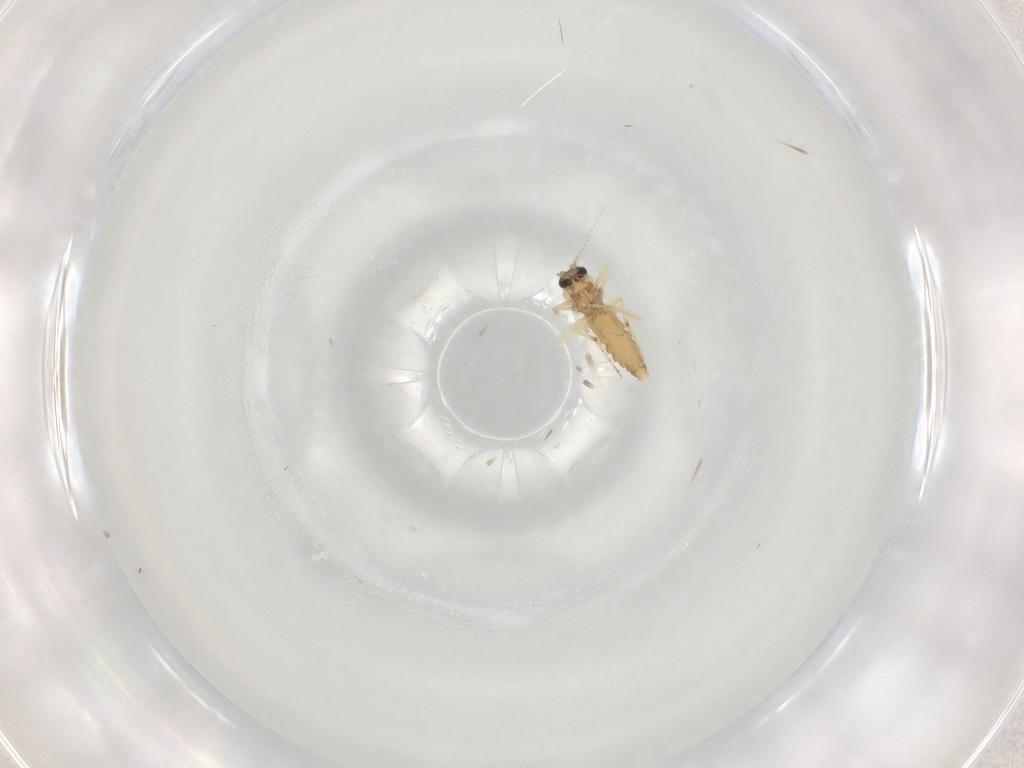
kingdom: Animalia
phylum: Arthropoda
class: Insecta
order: Diptera
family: Ceratopogonidae
